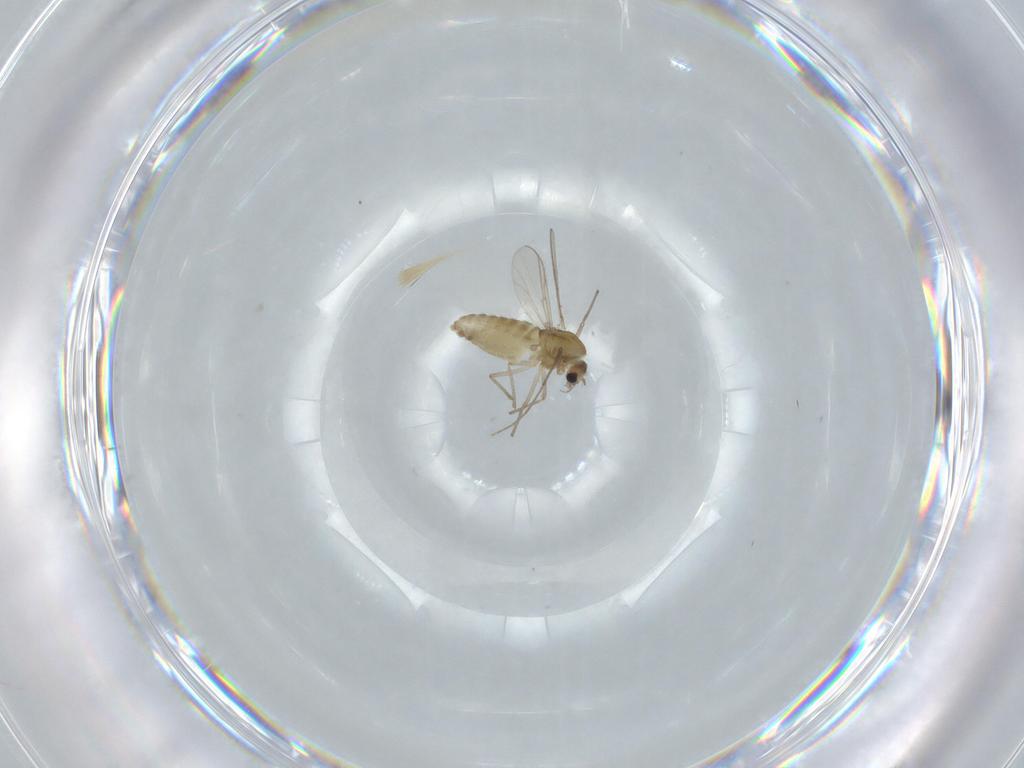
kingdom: Animalia
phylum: Arthropoda
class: Insecta
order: Diptera
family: Chironomidae
